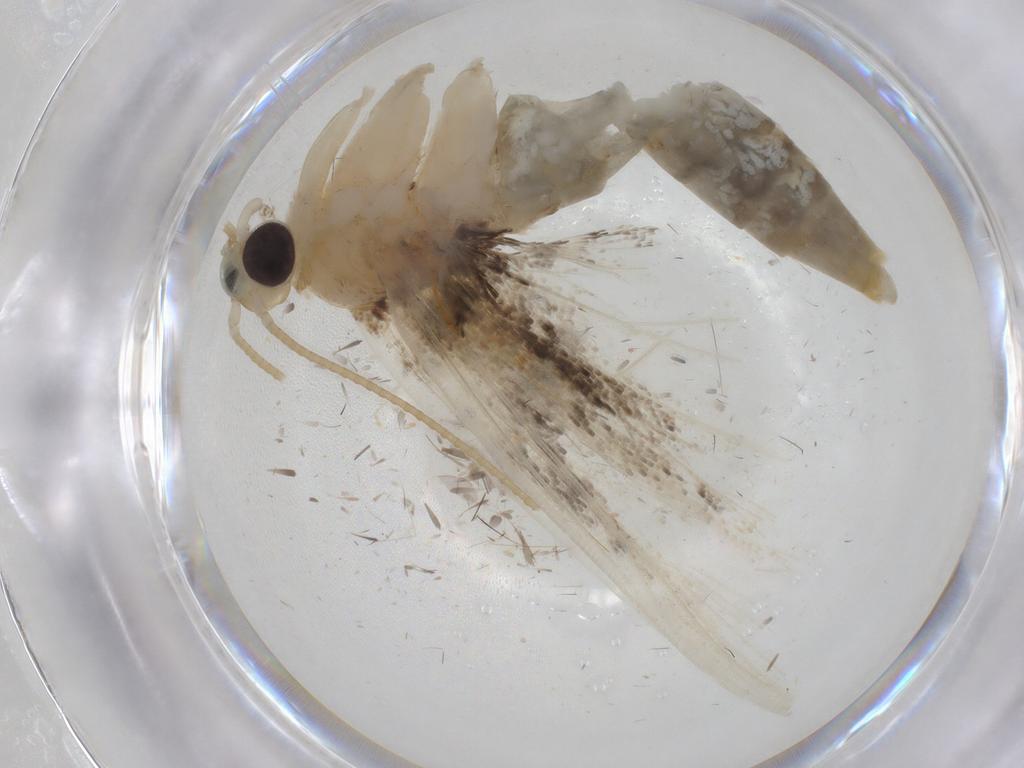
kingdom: Animalia
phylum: Arthropoda
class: Insecta
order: Lepidoptera
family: Crambidae
